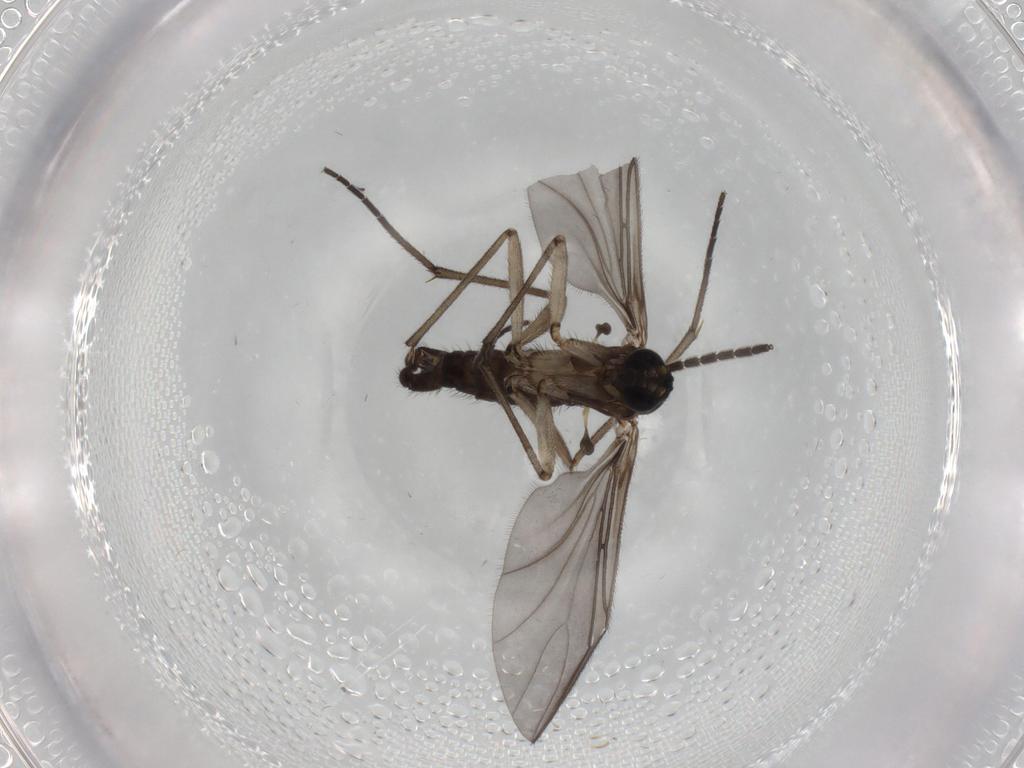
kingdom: Animalia
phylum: Arthropoda
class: Insecta
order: Diptera
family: Sciaridae
